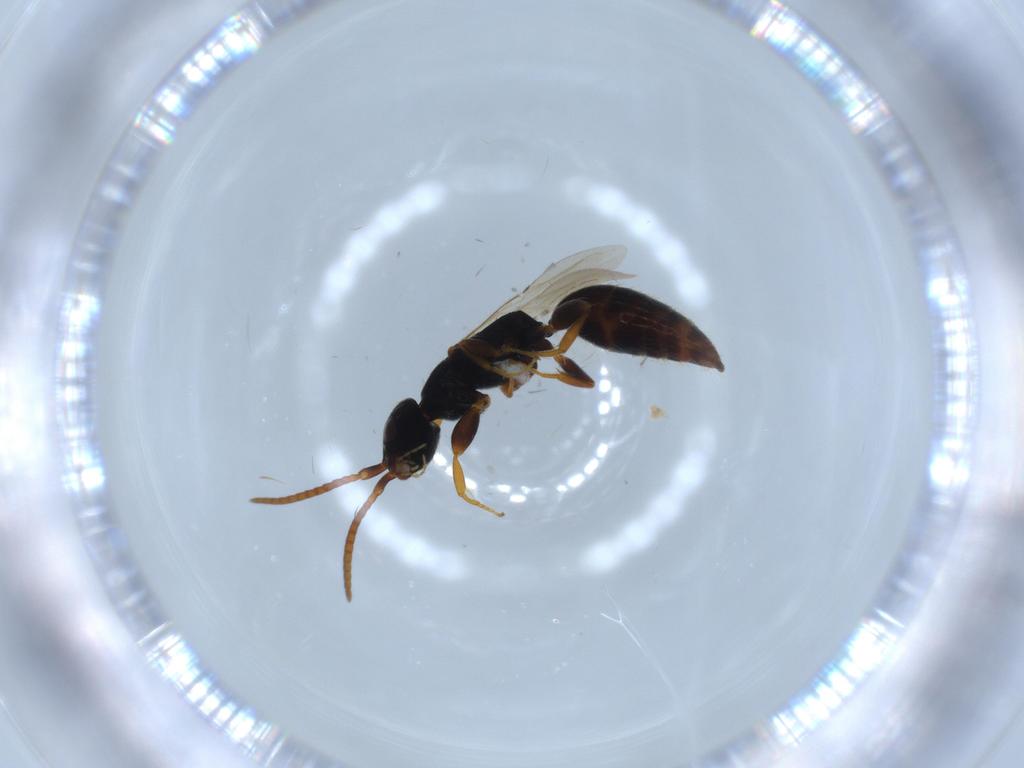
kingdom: Animalia
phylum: Arthropoda
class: Insecta
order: Hymenoptera
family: Bethylidae
